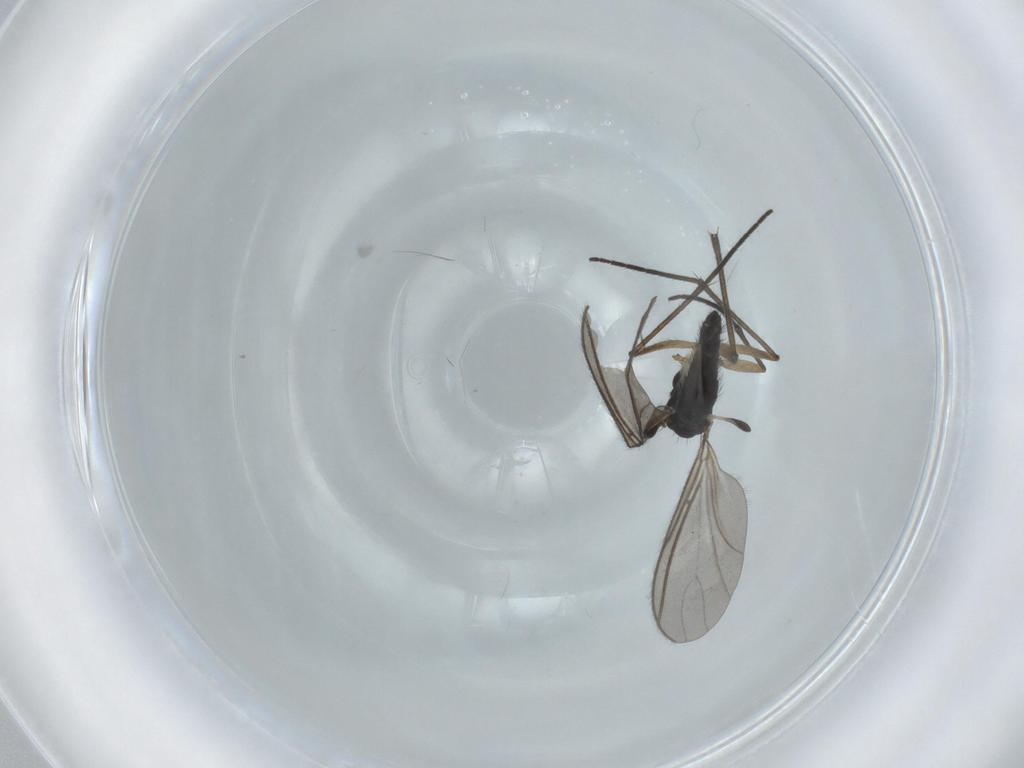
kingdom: Animalia
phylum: Arthropoda
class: Insecta
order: Diptera
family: Sciaridae
